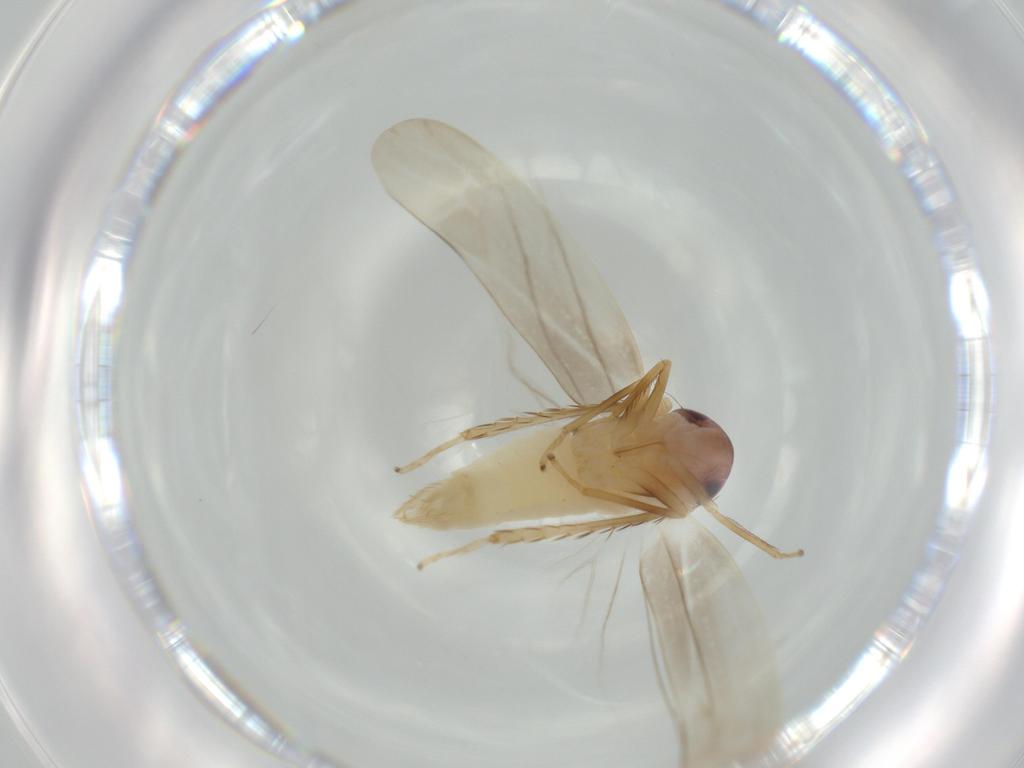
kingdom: Animalia
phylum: Arthropoda
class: Insecta
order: Hemiptera
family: Cicadellidae
